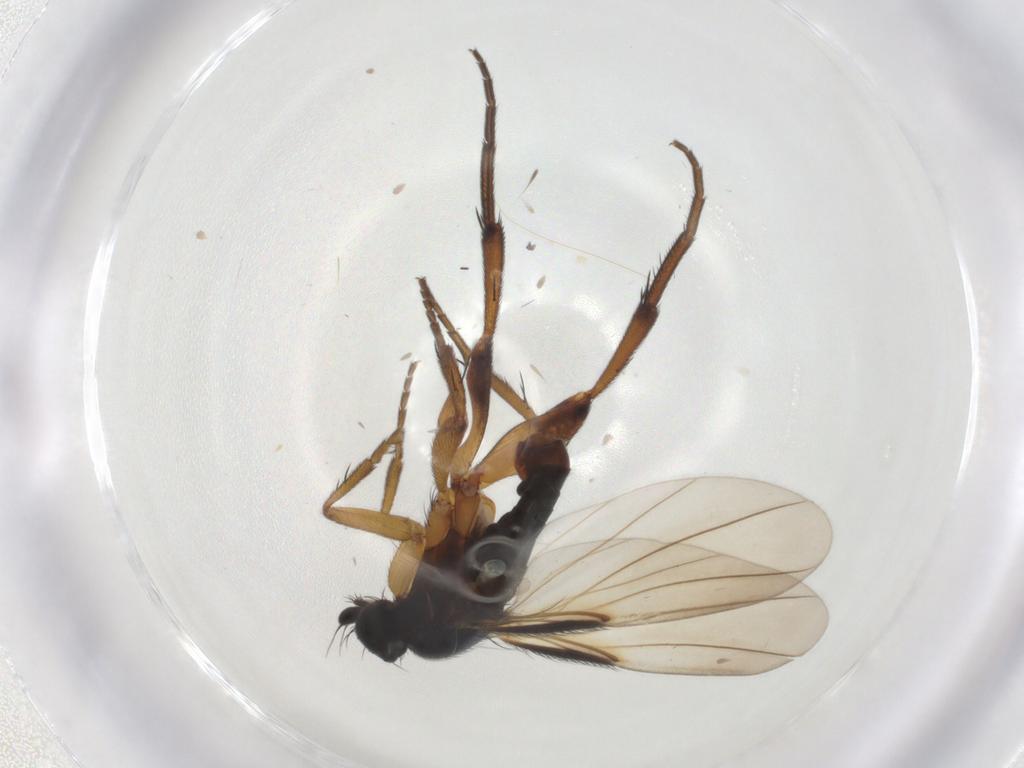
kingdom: Animalia
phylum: Arthropoda
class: Insecta
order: Diptera
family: Phoridae
